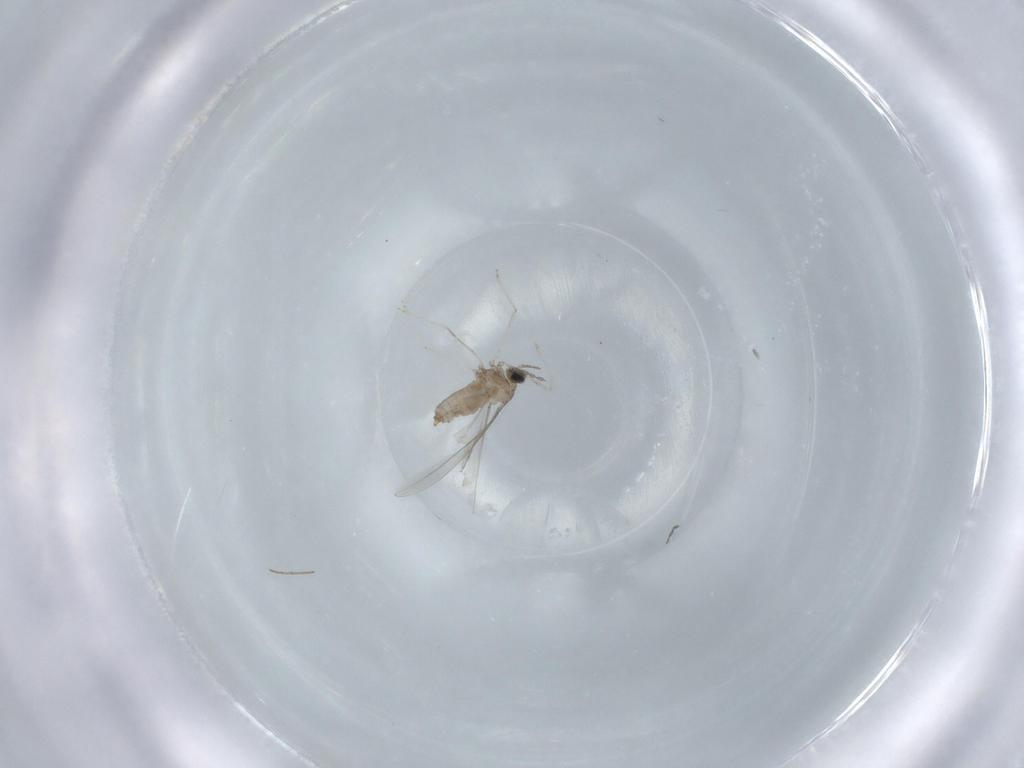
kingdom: Animalia
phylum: Arthropoda
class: Insecta
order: Diptera
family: Cecidomyiidae
